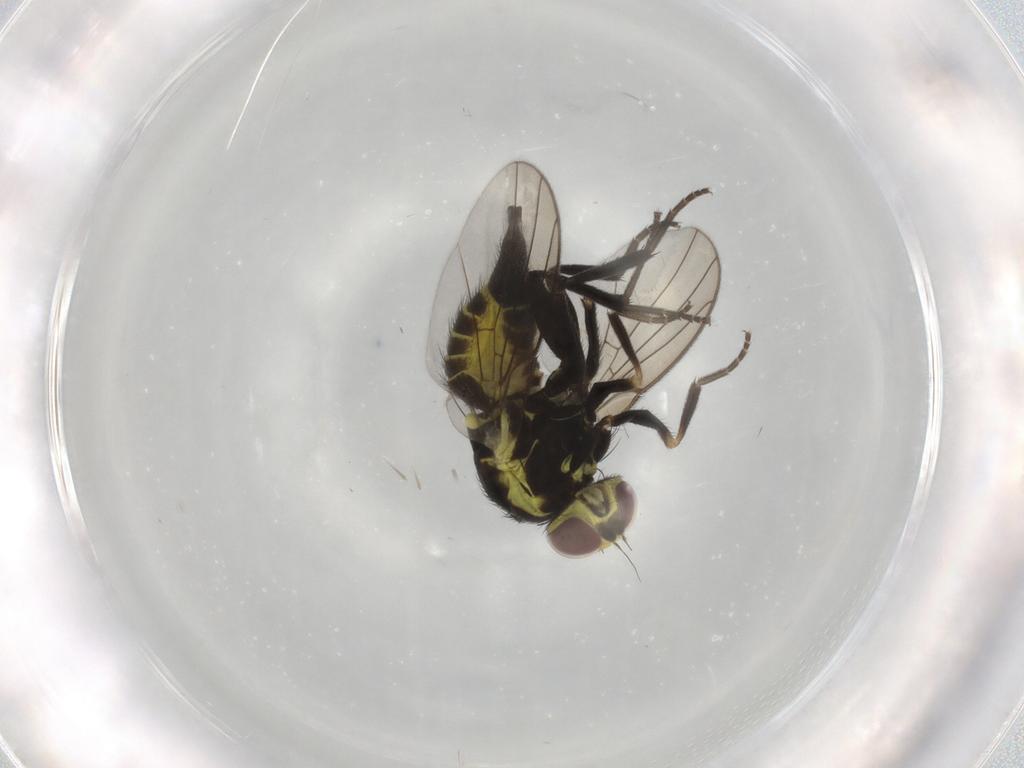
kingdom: Animalia
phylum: Arthropoda
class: Insecta
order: Diptera
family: Agromyzidae
